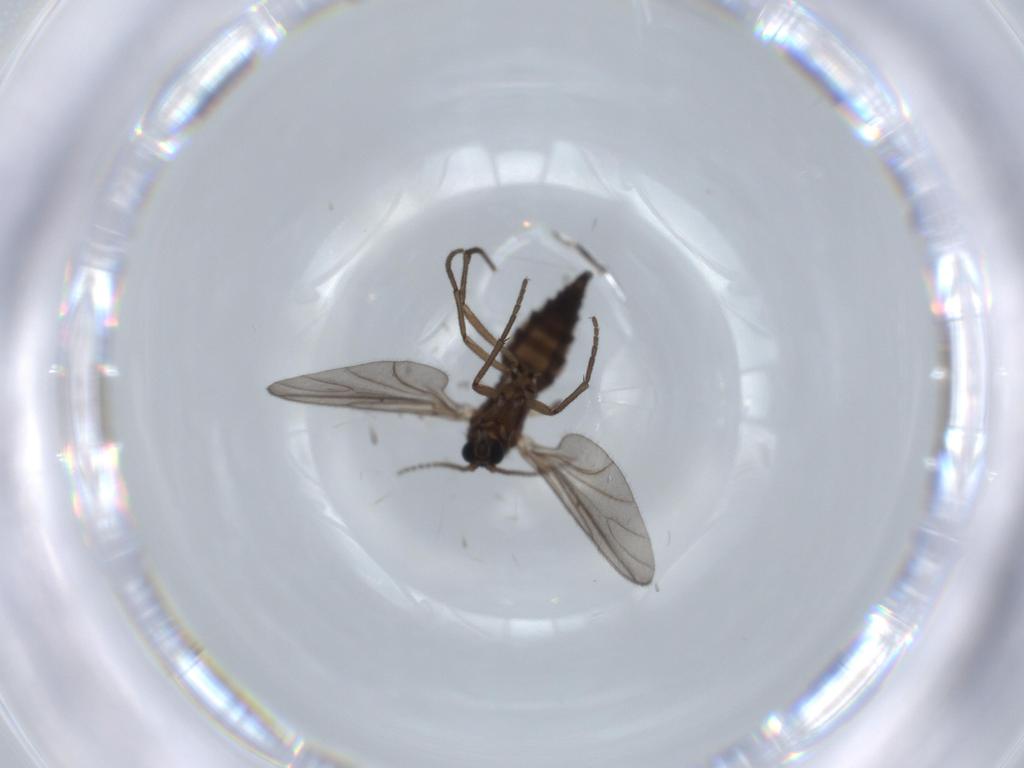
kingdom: Animalia
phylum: Arthropoda
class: Insecta
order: Diptera
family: Sciaridae
